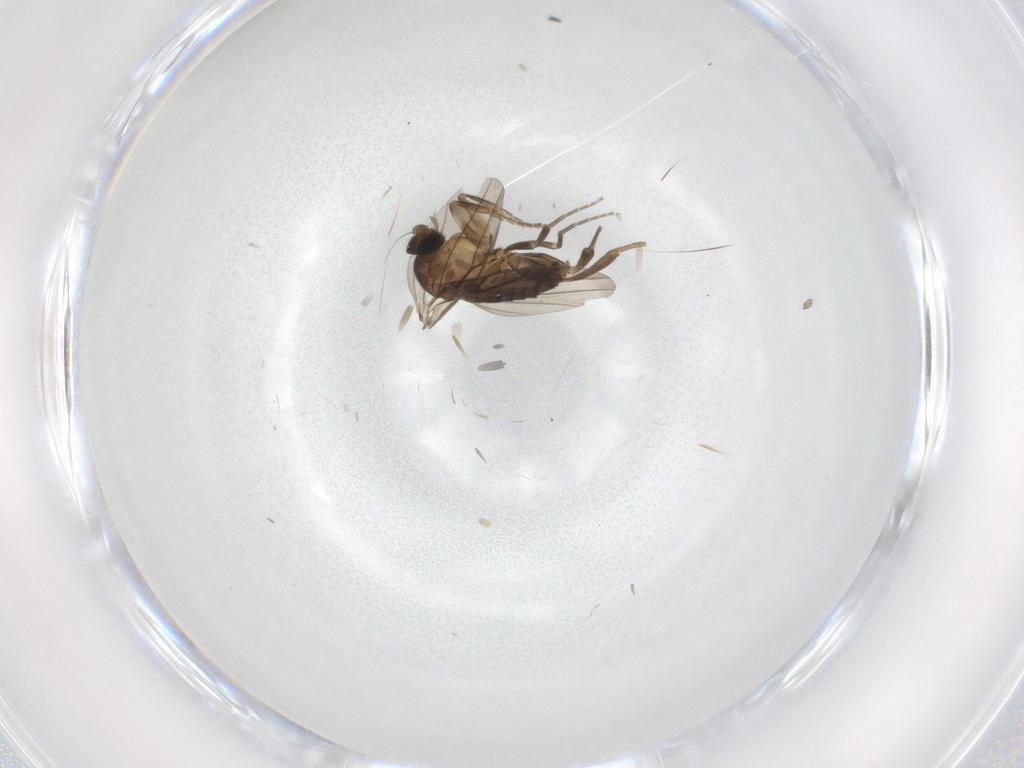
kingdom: Animalia
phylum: Arthropoda
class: Insecta
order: Diptera
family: Phoridae
